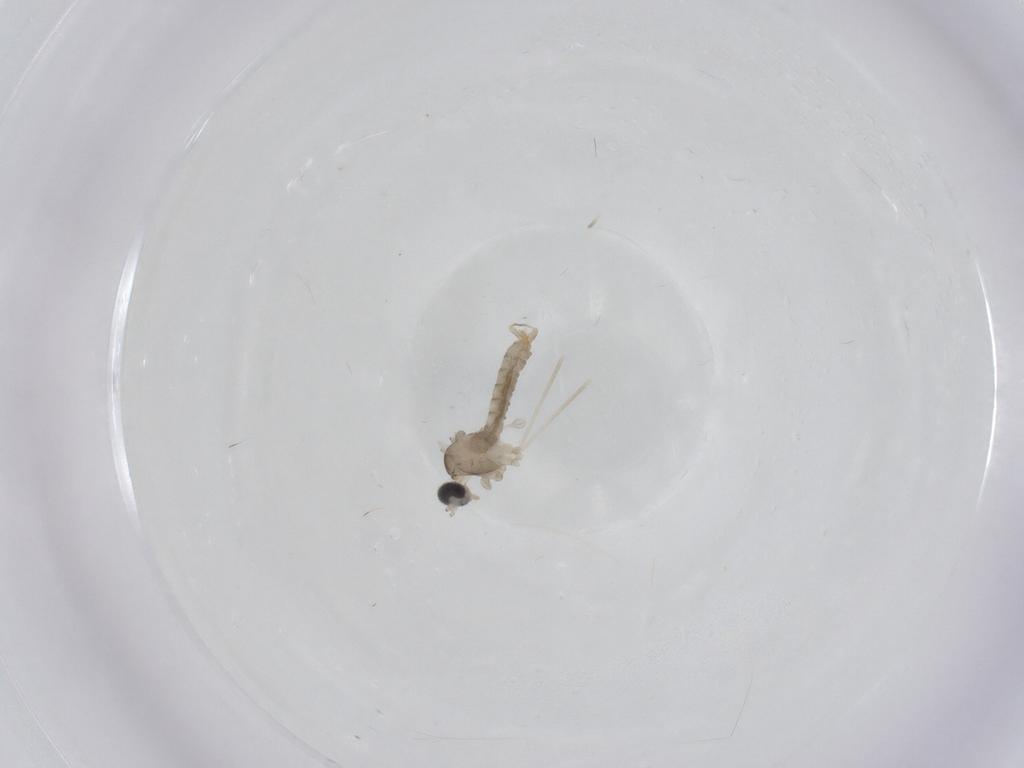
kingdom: Animalia
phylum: Arthropoda
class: Insecta
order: Diptera
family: Cecidomyiidae
